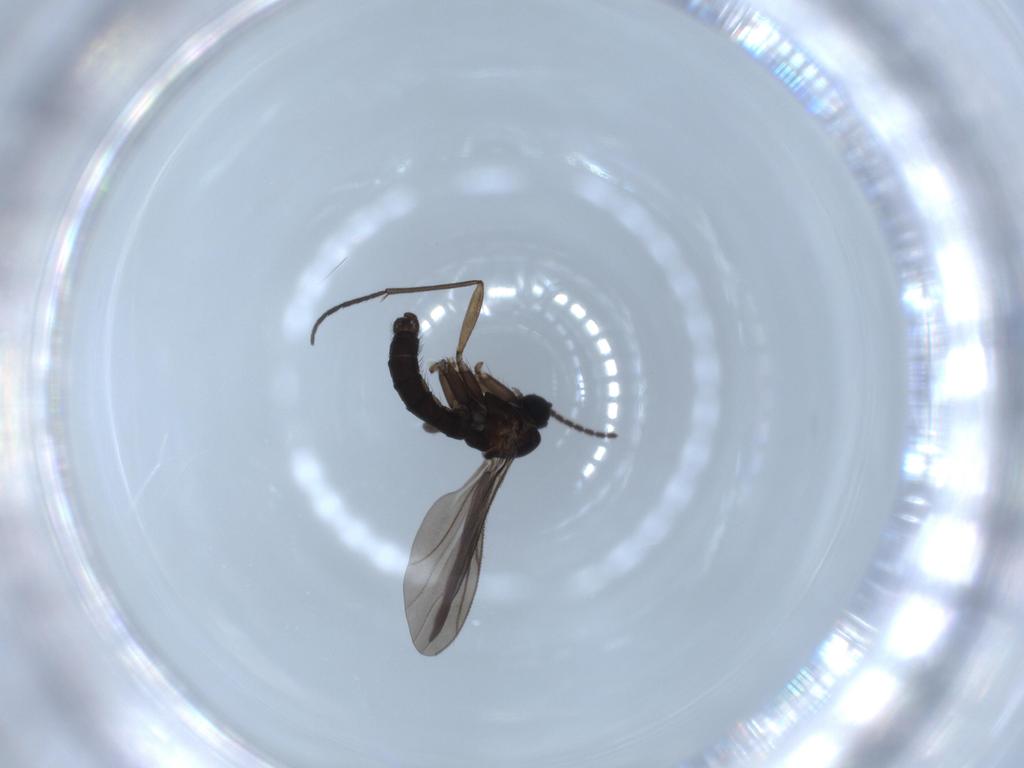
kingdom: Animalia
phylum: Arthropoda
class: Insecta
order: Diptera
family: Sciaridae
